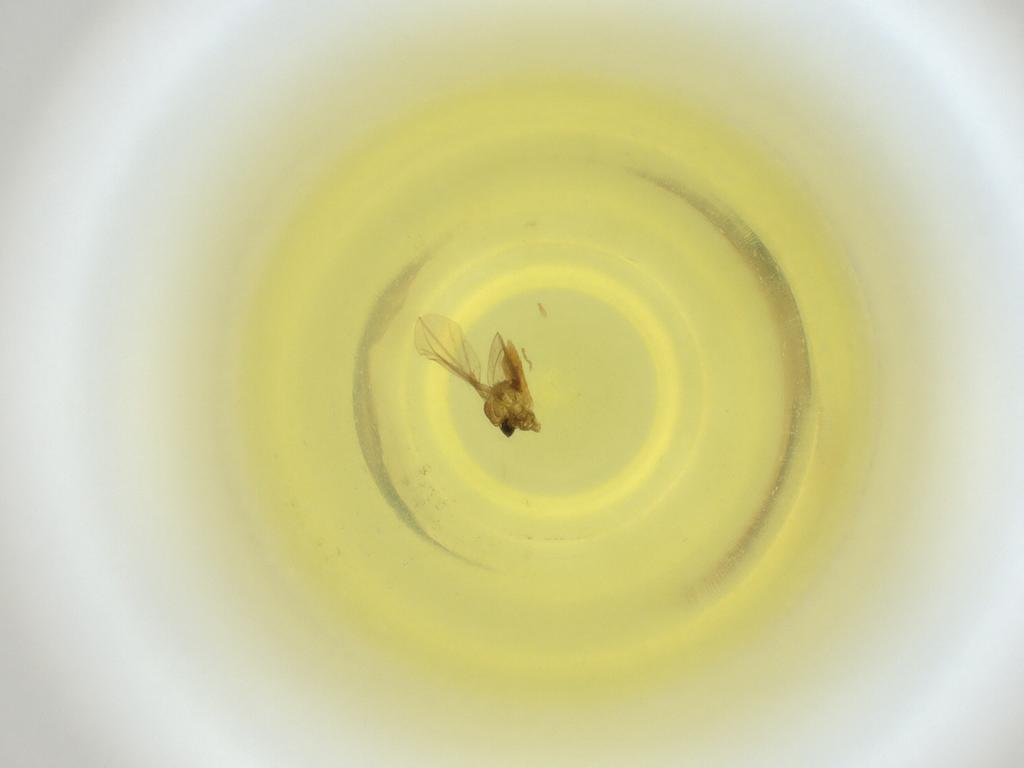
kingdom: Animalia
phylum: Arthropoda
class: Insecta
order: Diptera
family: Cecidomyiidae
